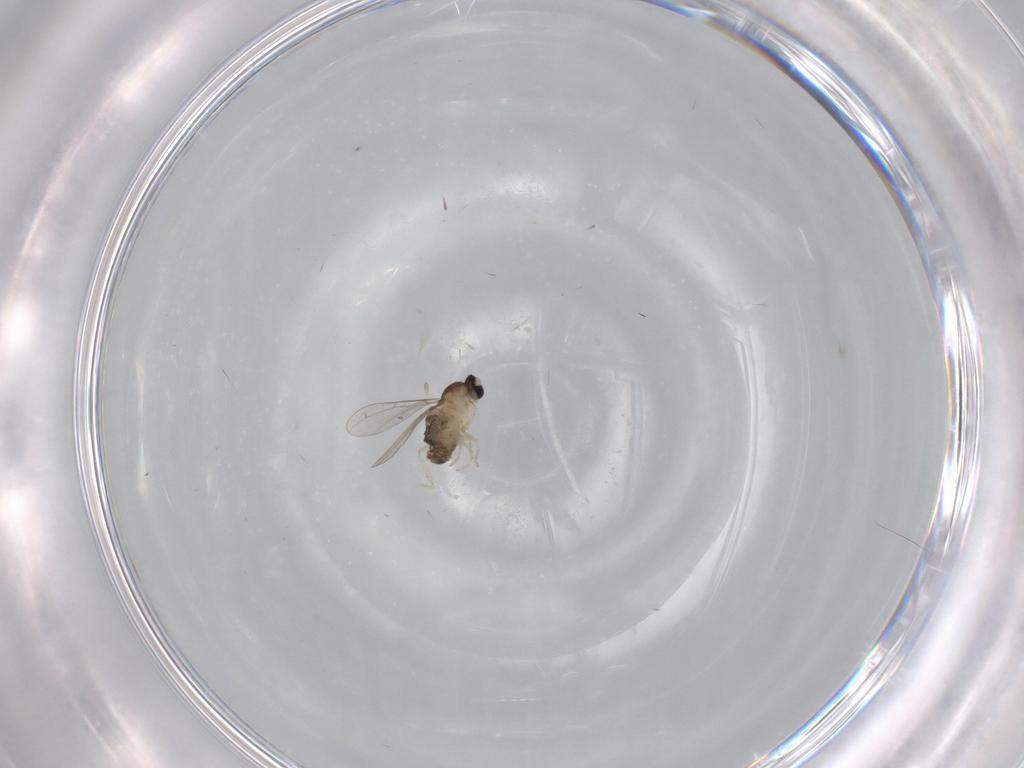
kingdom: Animalia
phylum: Arthropoda
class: Insecta
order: Diptera
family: Cecidomyiidae
